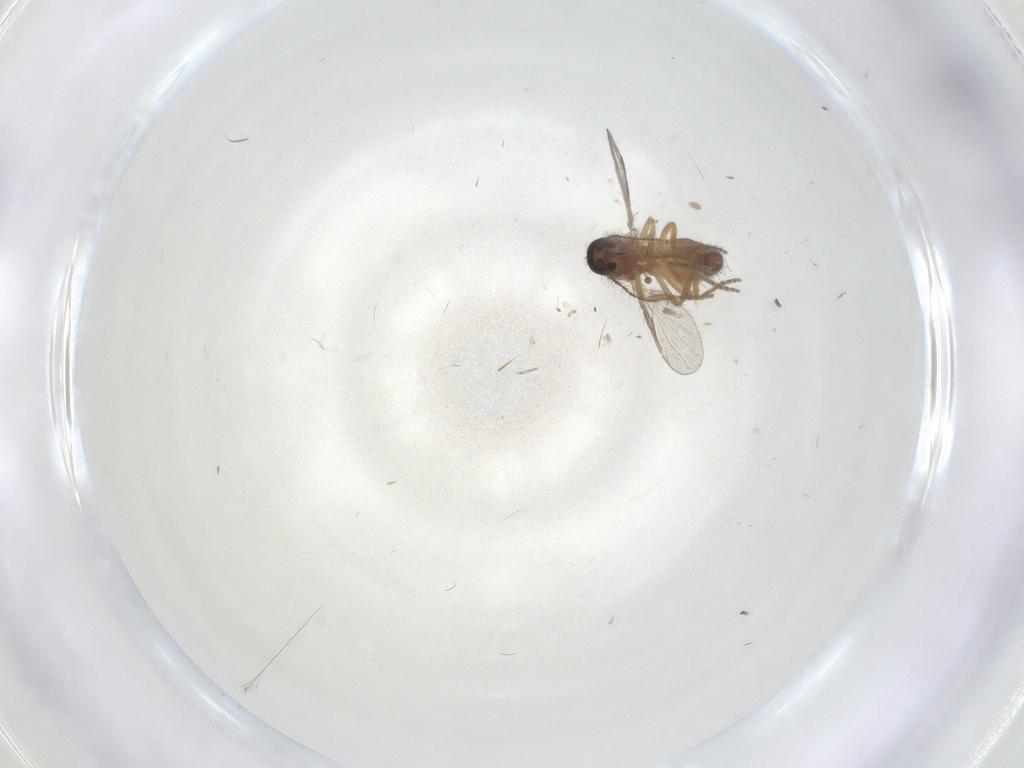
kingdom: Animalia
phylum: Arthropoda
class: Insecta
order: Diptera
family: Ceratopogonidae
